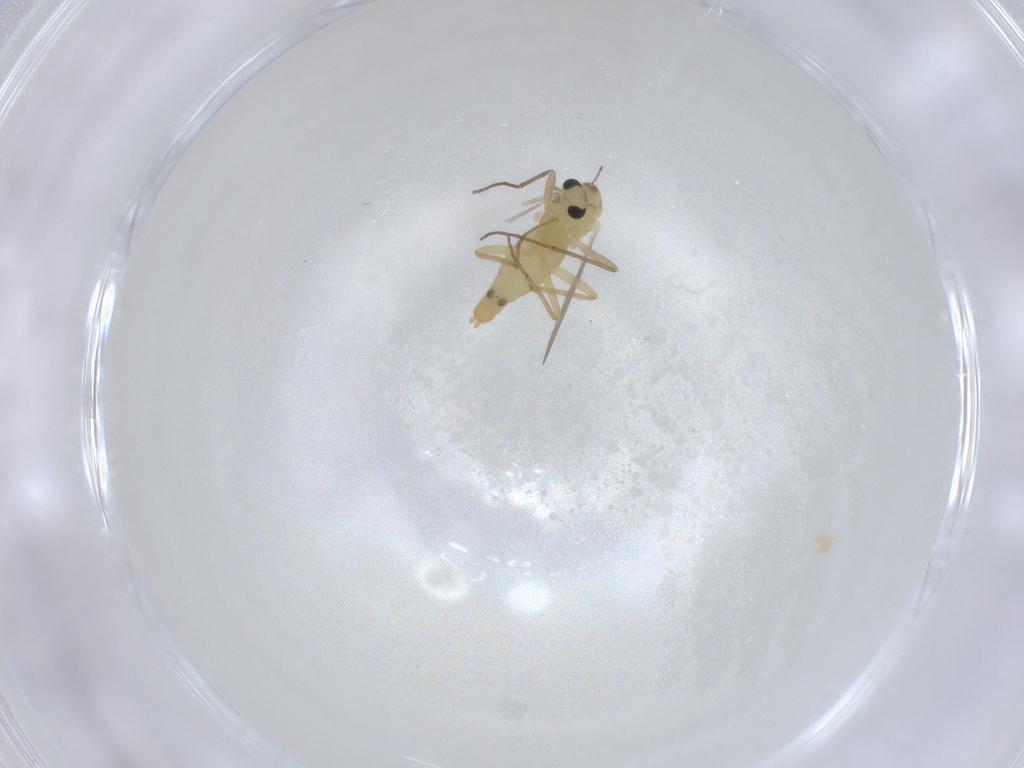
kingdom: Animalia
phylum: Arthropoda
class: Insecta
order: Diptera
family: Chironomidae
